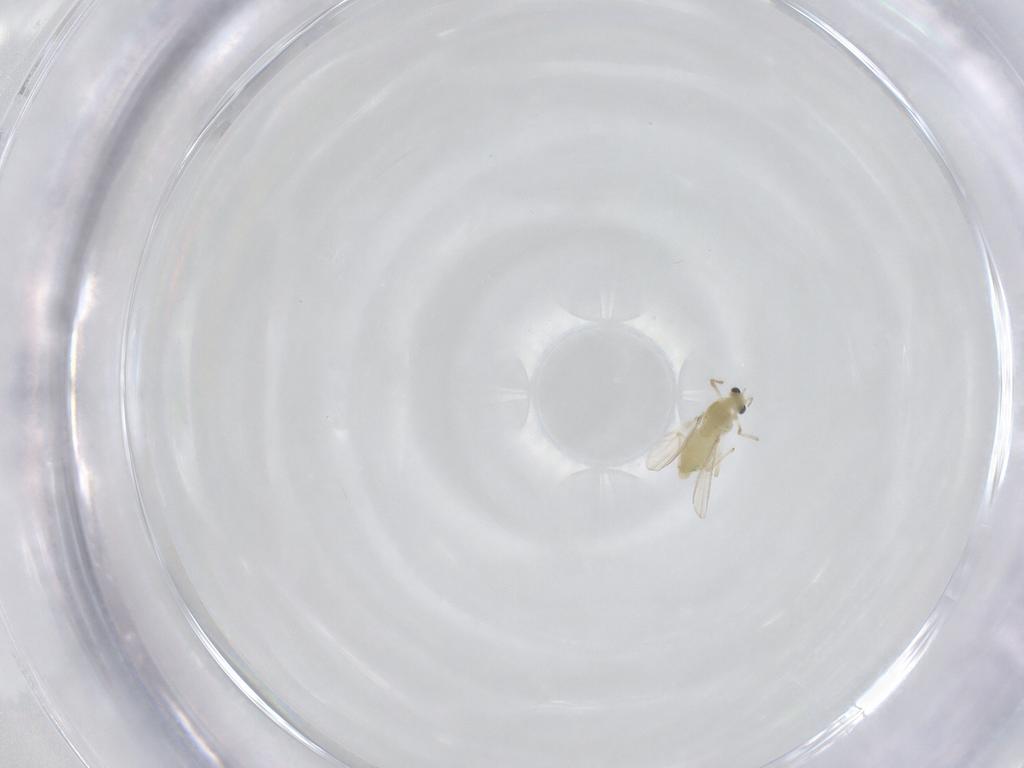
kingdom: Animalia
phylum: Arthropoda
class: Insecta
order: Diptera
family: Chironomidae
